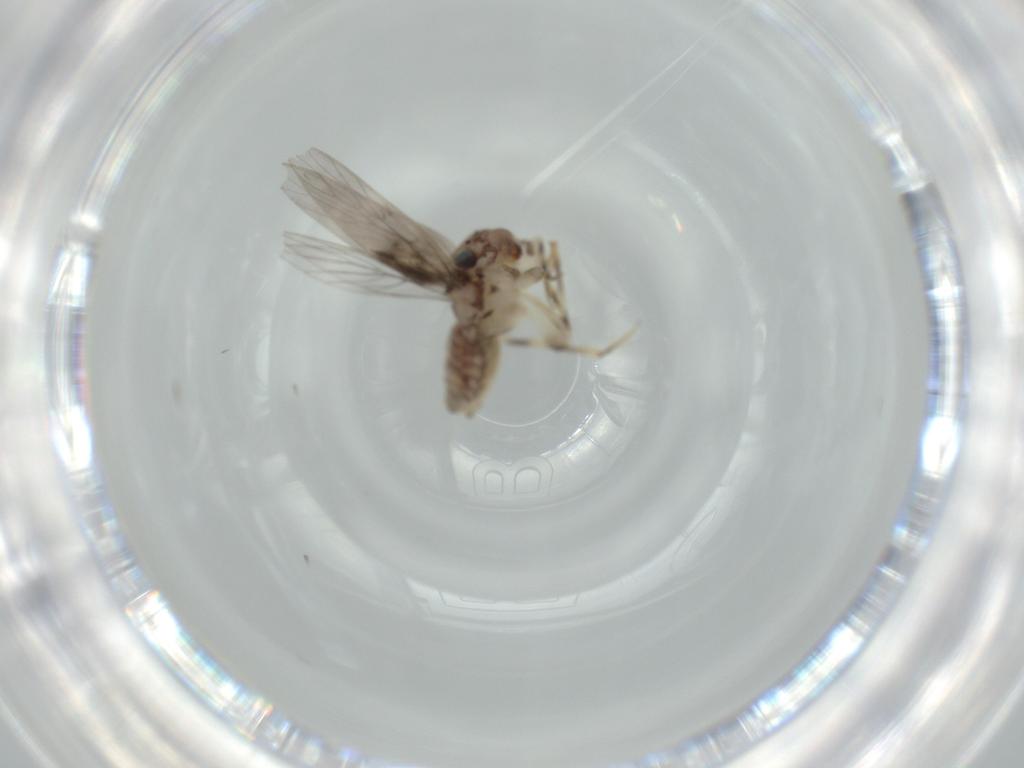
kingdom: Animalia
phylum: Arthropoda
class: Insecta
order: Psocodea
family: Lepidopsocidae
